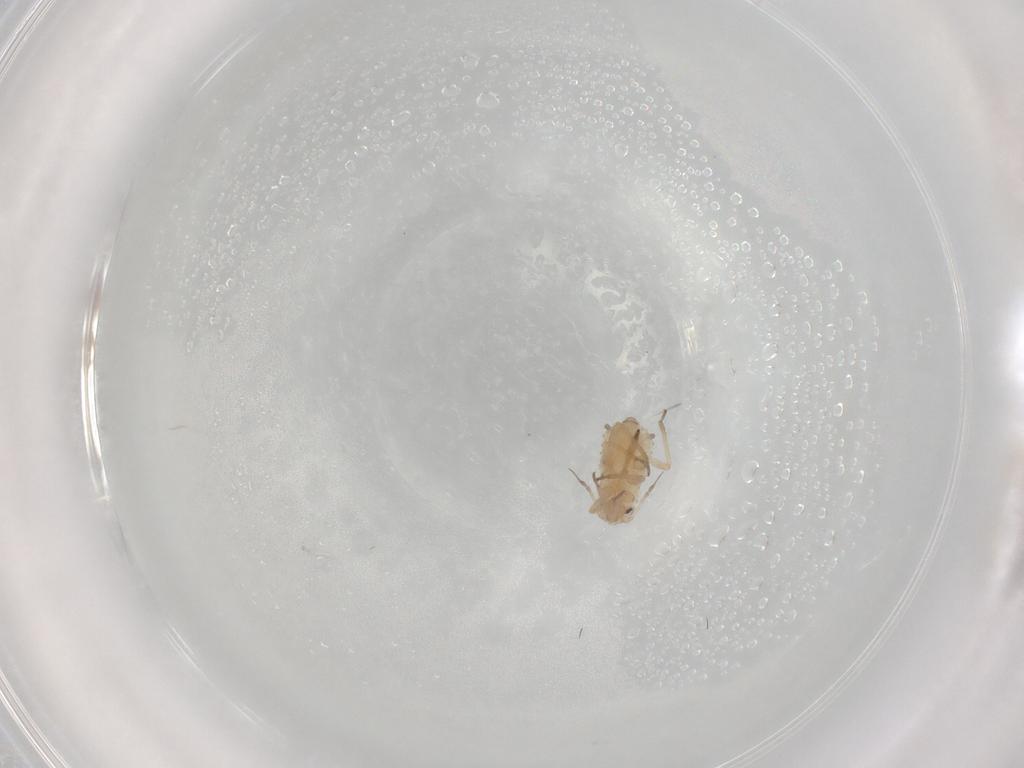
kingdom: Animalia
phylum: Arthropoda
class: Insecta
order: Hemiptera
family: Aphididae
